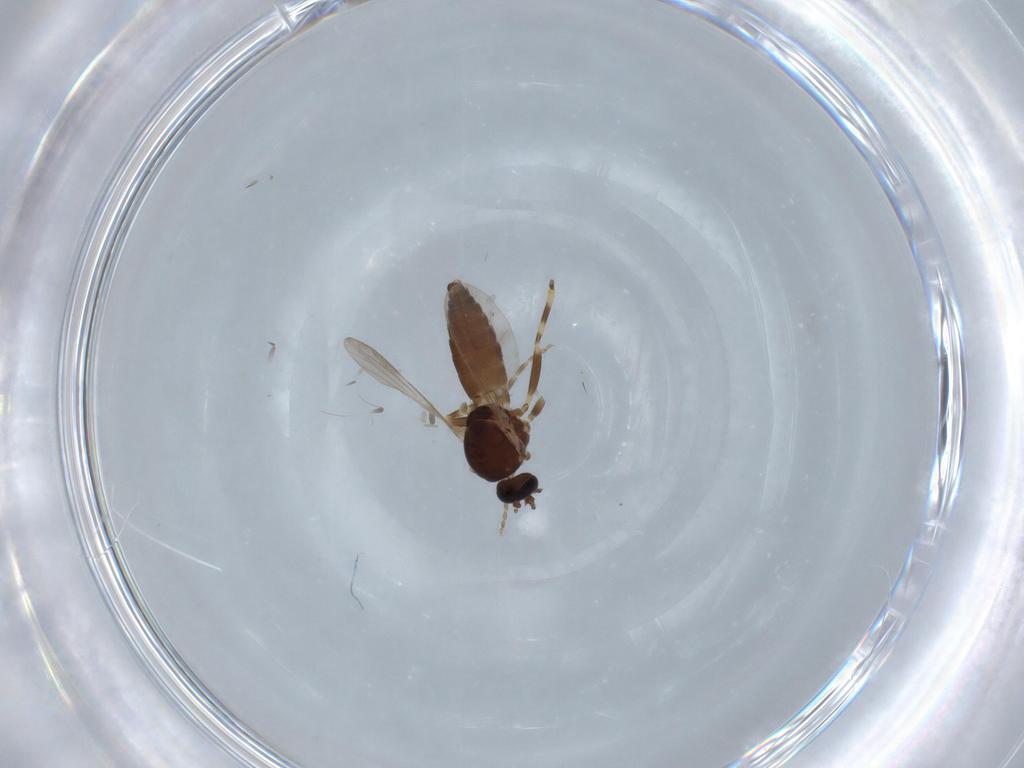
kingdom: Animalia
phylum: Arthropoda
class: Insecta
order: Diptera
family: Ceratopogonidae
